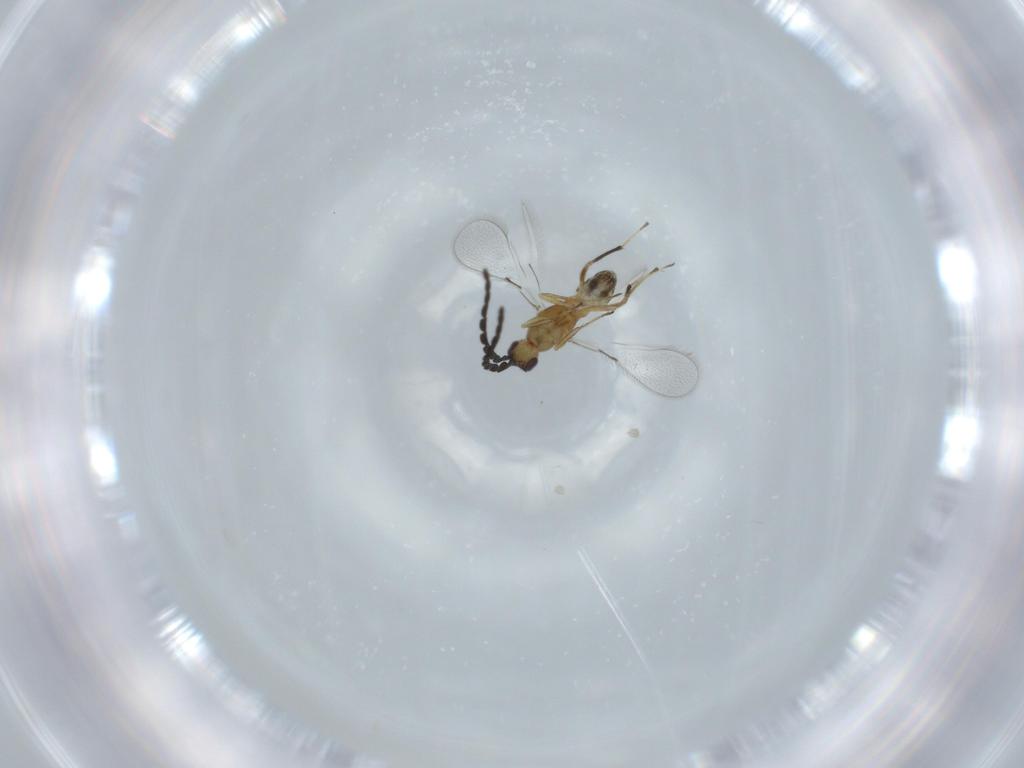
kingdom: Animalia
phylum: Arthropoda
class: Insecta
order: Hymenoptera
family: Mymaridae
